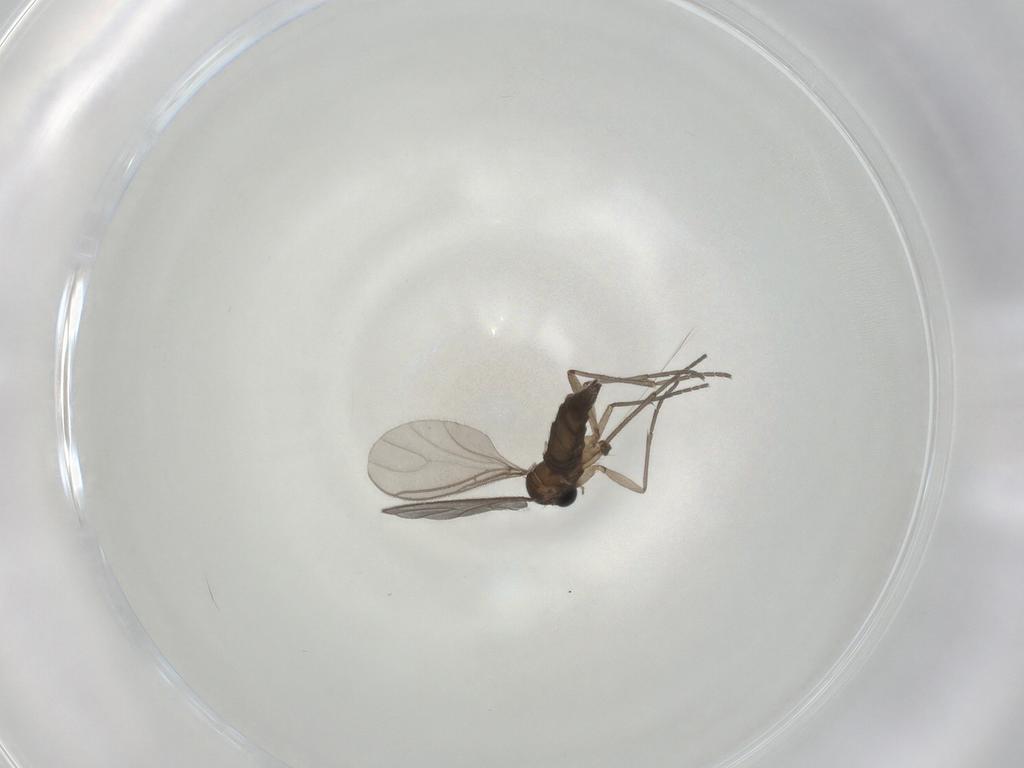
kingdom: Animalia
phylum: Arthropoda
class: Insecta
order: Diptera
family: Sciaridae
